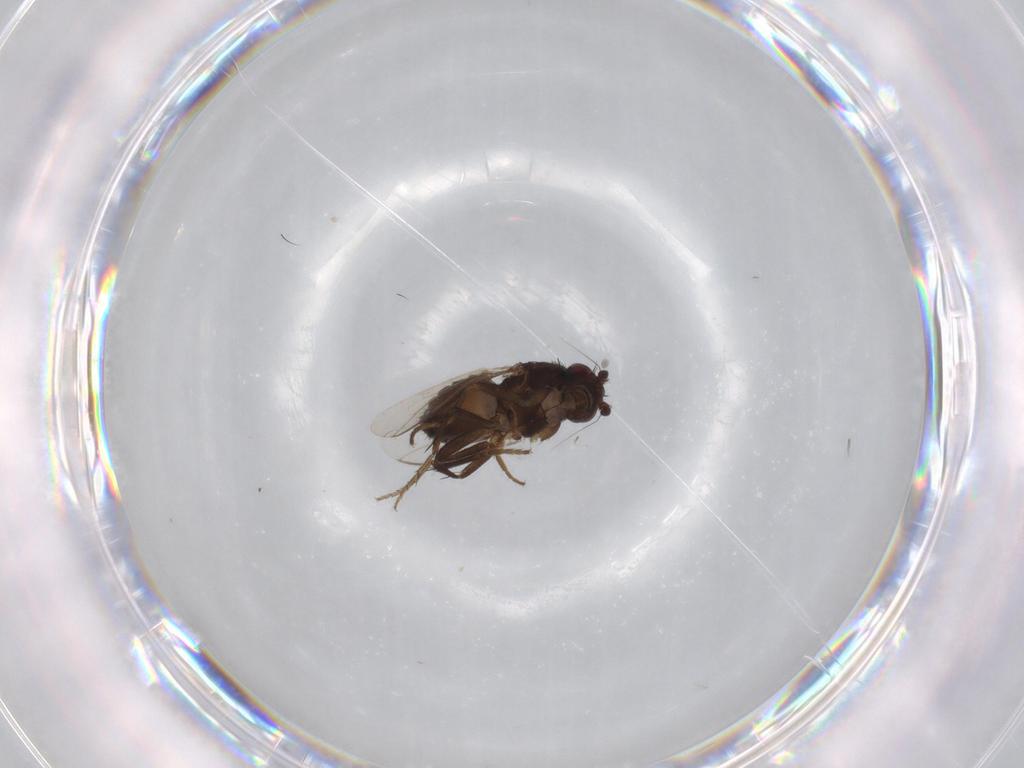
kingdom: Animalia
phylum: Arthropoda
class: Insecta
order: Diptera
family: Sphaeroceridae
